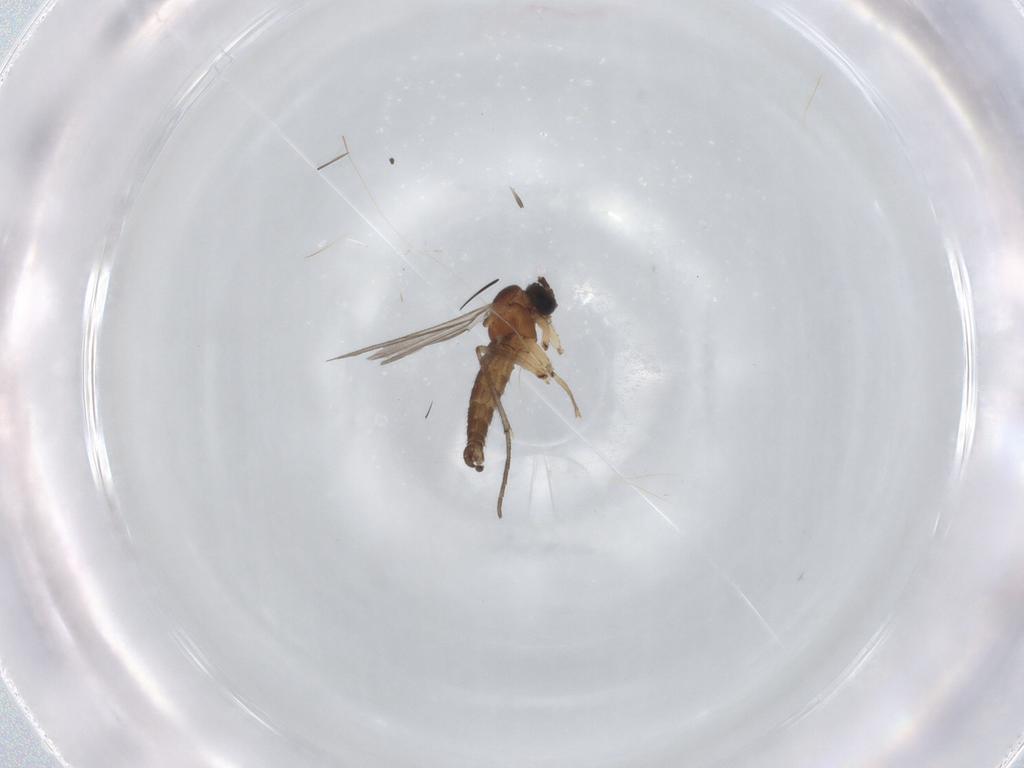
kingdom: Animalia
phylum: Arthropoda
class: Insecta
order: Diptera
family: Sciaridae
